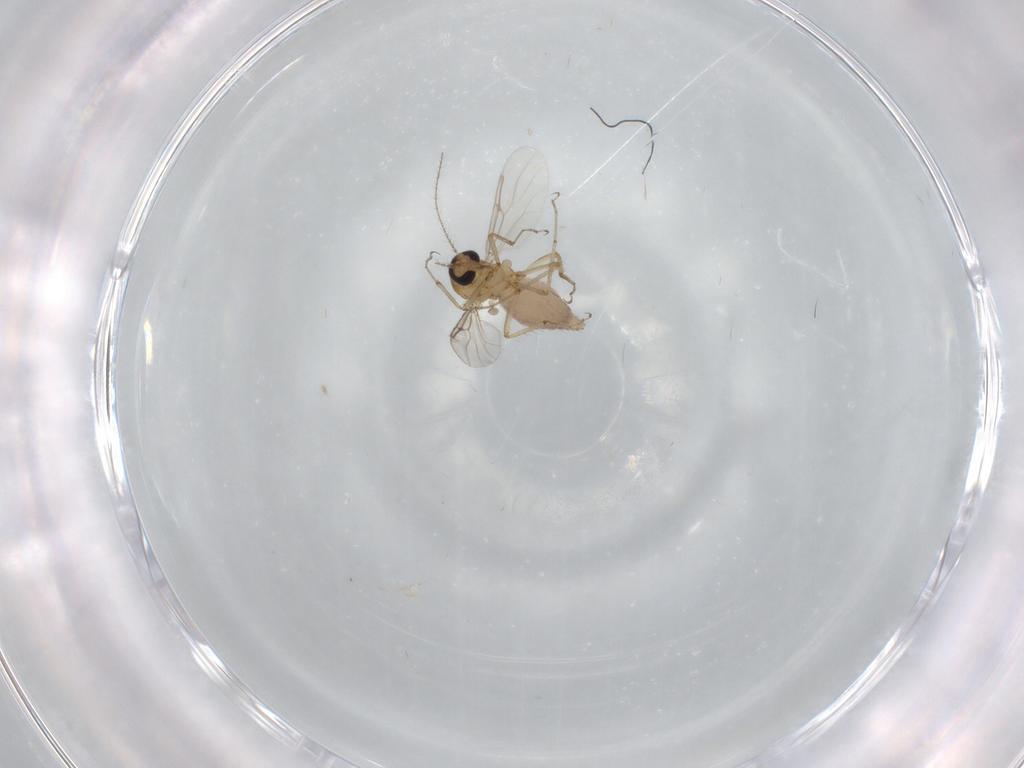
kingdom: Animalia
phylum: Arthropoda
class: Insecta
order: Diptera
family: Ceratopogonidae
